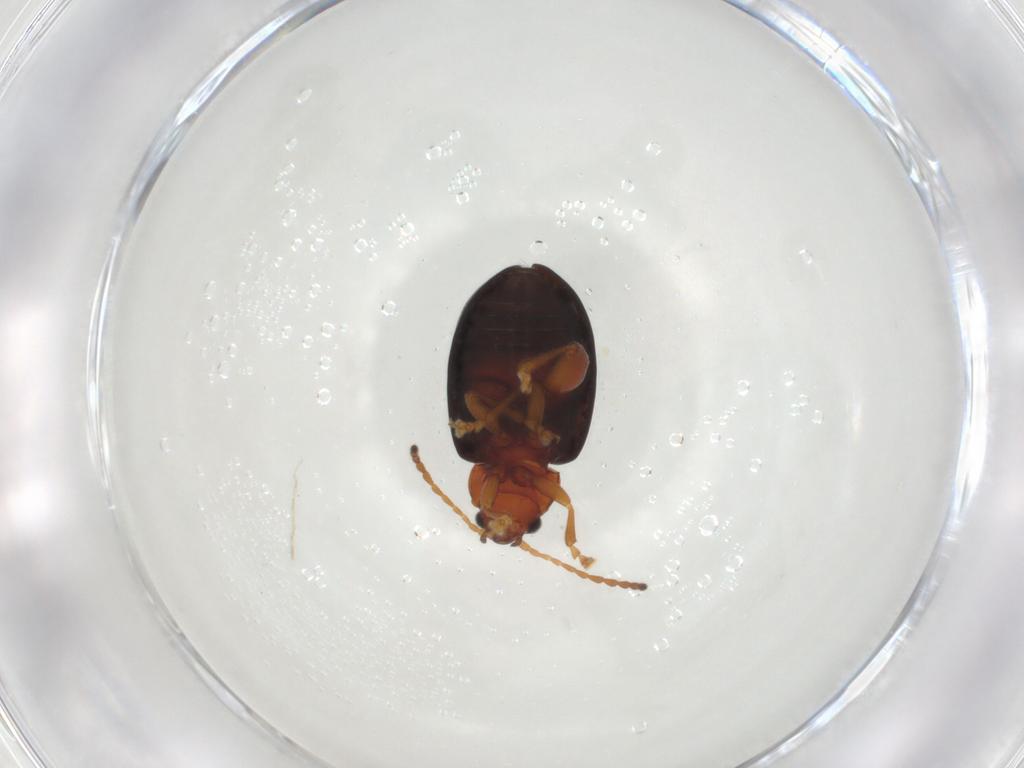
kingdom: Animalia
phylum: Arthropoda
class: Insecta
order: Coleoptera
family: Chrysomelidae
